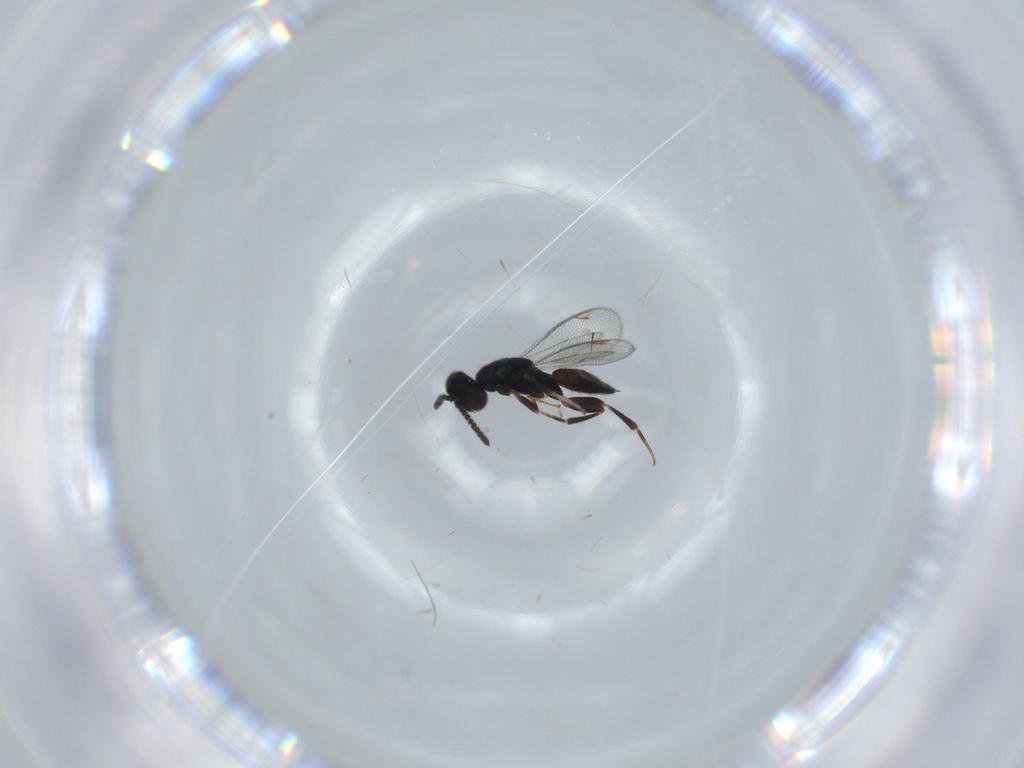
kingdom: Animalia
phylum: Arthropoda
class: Insecta
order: Hymenoptera
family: Cleonyminae
